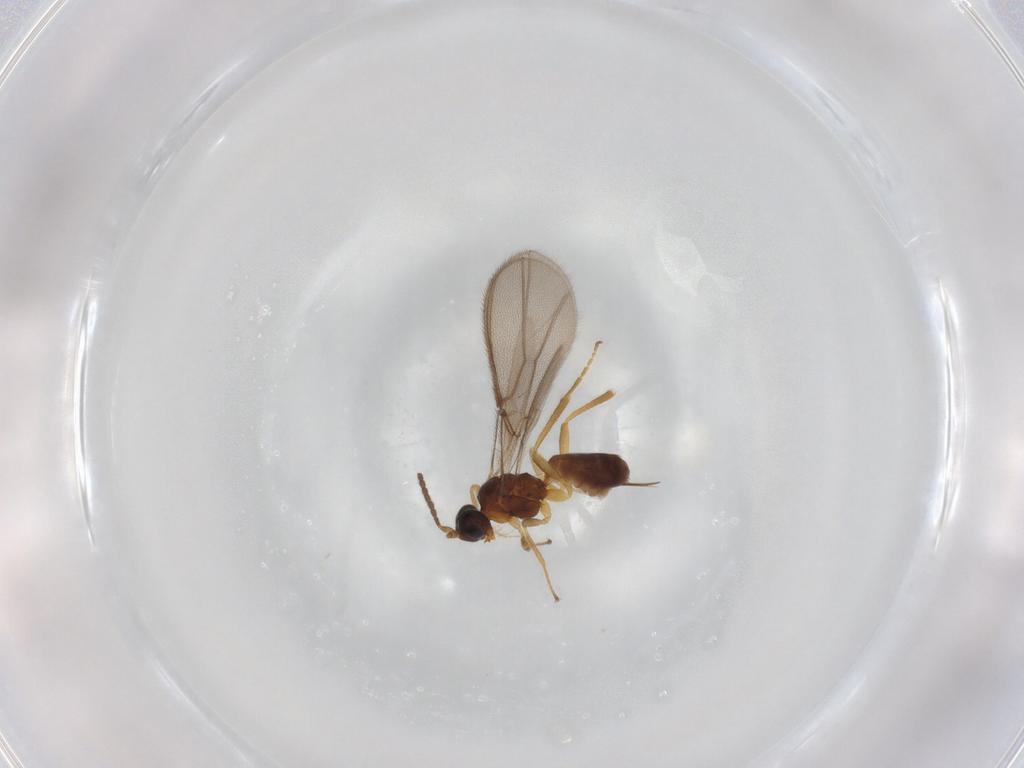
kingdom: Animalia
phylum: Arthropoda
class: Insecta
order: Hymenoptera
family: Braconidae
